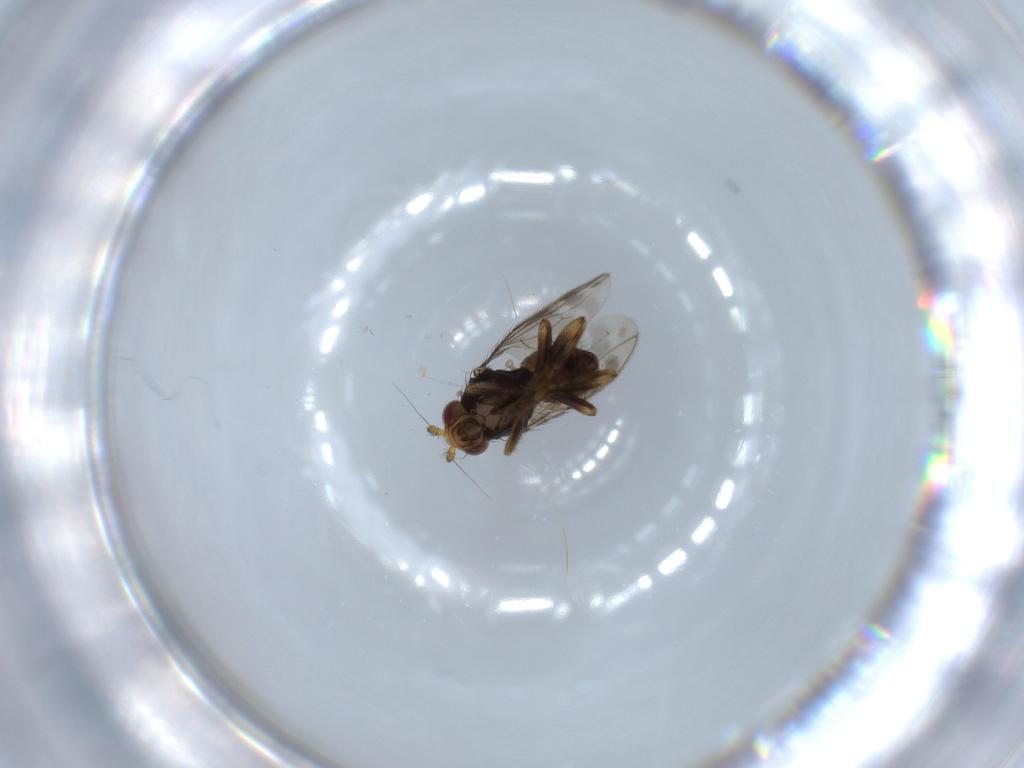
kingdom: Animalia
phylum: Arthropoda
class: Insecta
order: Diptera
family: Sphaeroceridae
